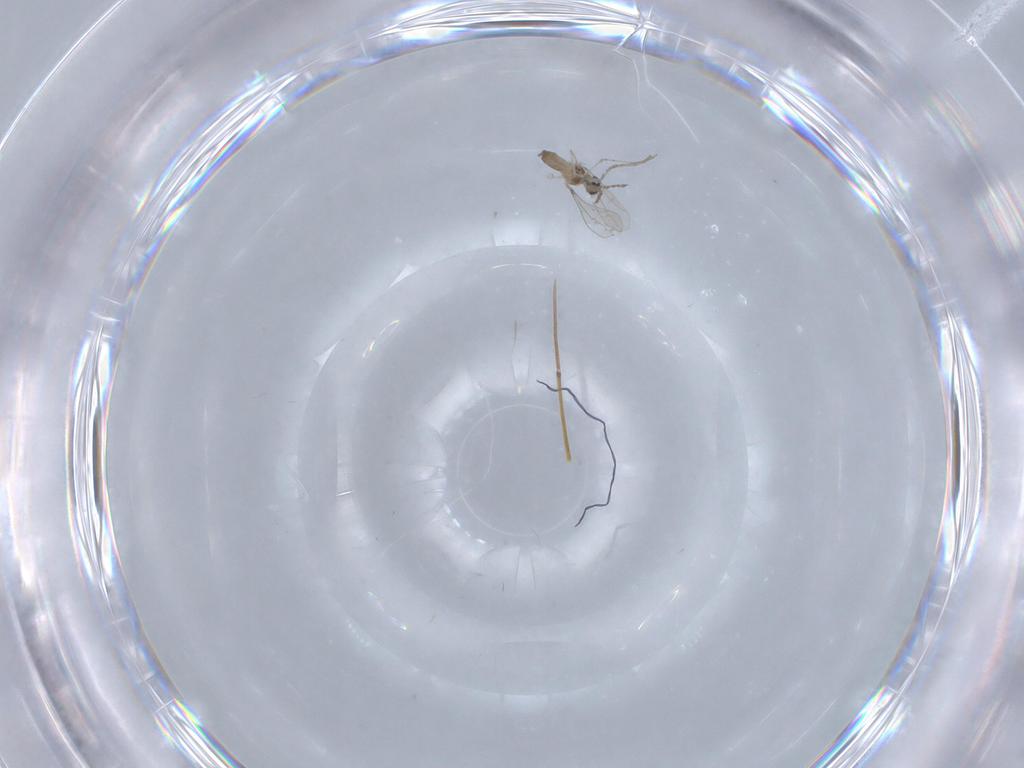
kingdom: Animalia
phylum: Arthropoda
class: Insecta
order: Diptera
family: Cecidomyiidae
